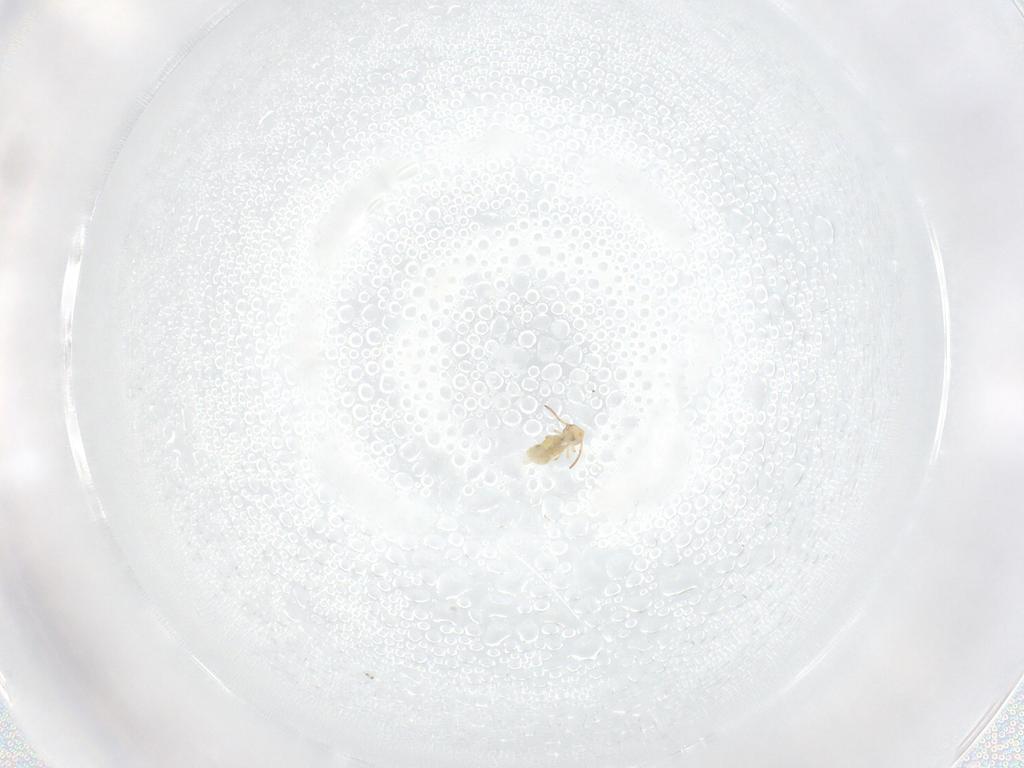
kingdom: Animalia
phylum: Arthropoda
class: Collembola
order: Symphypleona
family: Bourletiellidae
